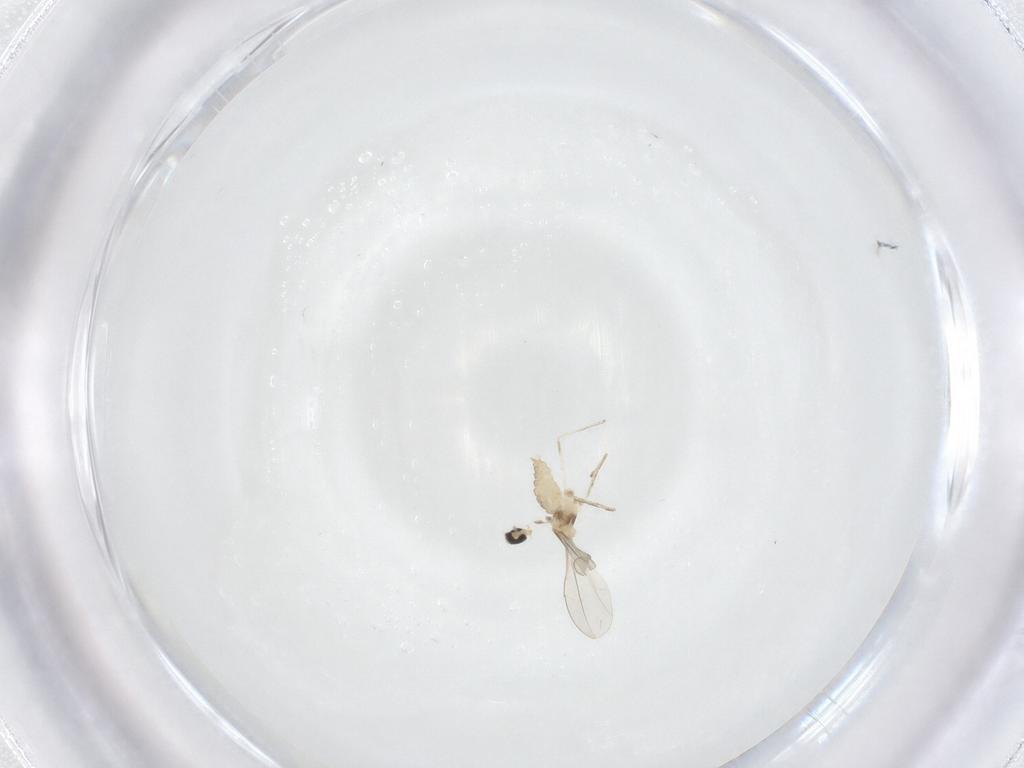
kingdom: Animalia
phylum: Arthropoda
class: Insecta
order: Diptera
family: Cecidomyiidae
